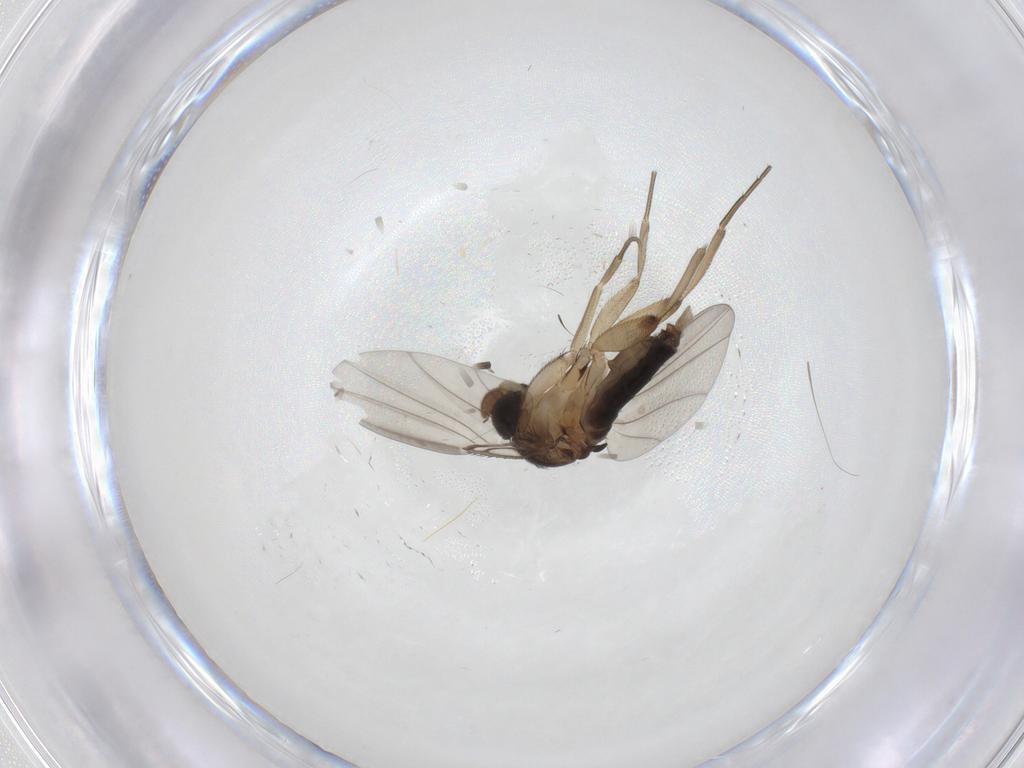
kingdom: Animalia
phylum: Arthropoda
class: Insecta
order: Diptera
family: Phoridae
